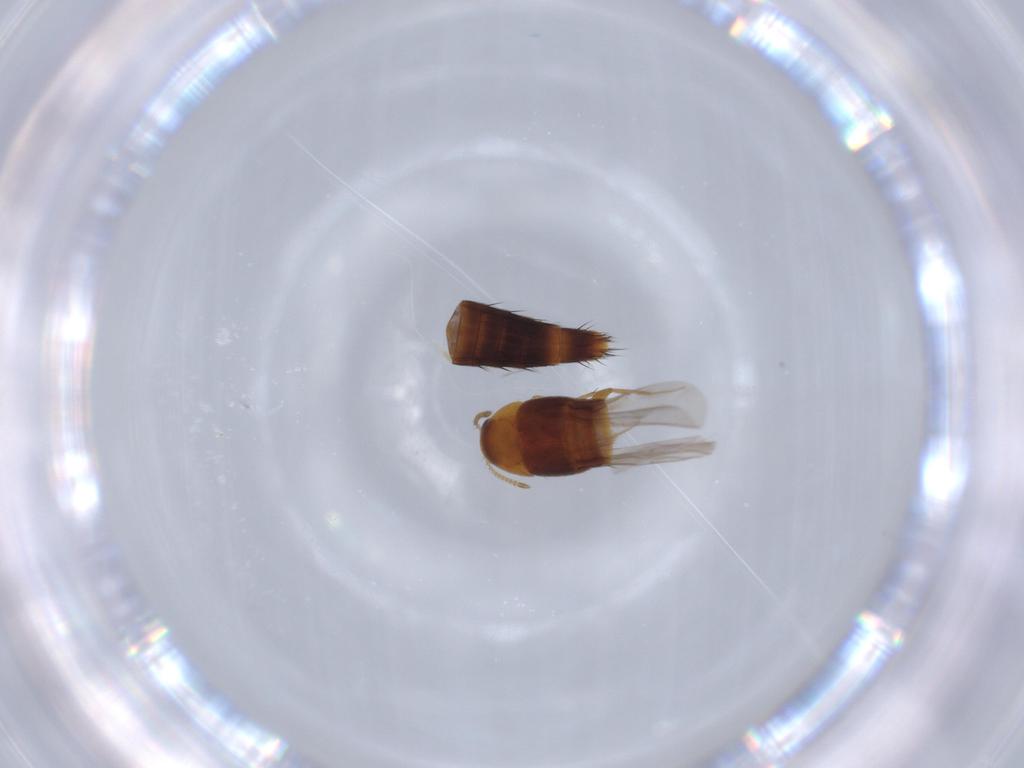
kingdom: Animalia
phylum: Arthropoda
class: Insecta
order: Coleoptera
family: Staphylinidae
